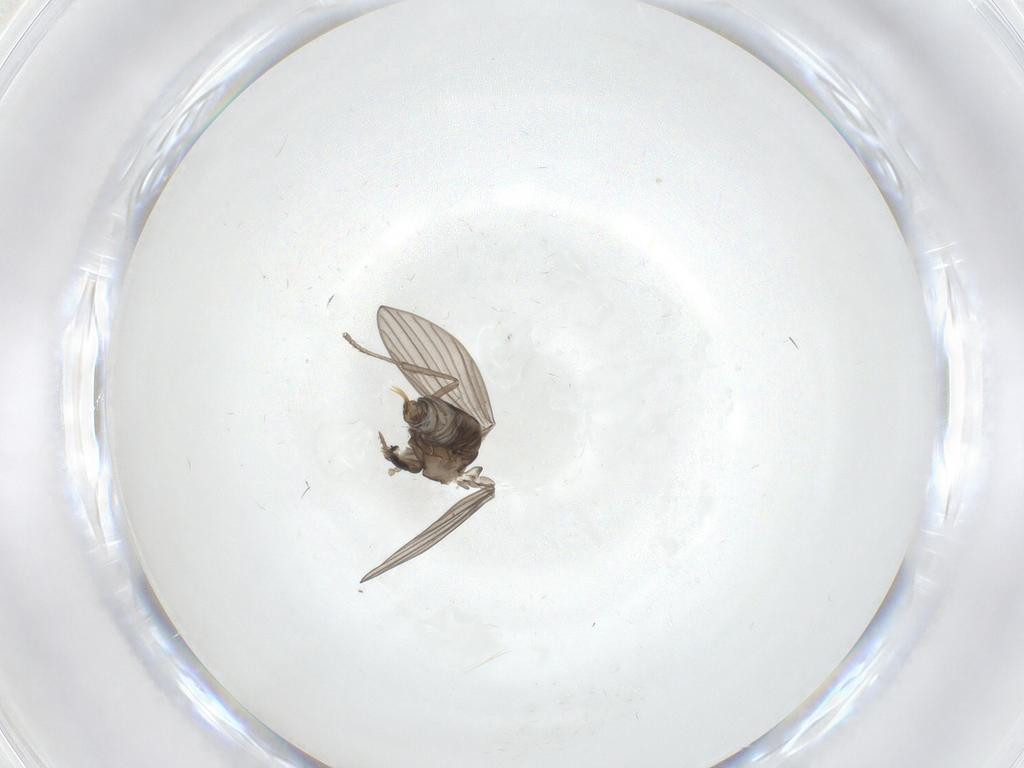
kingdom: Animalia
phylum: Arthropoda
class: Insecta
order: Diptera
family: Psychodidae
